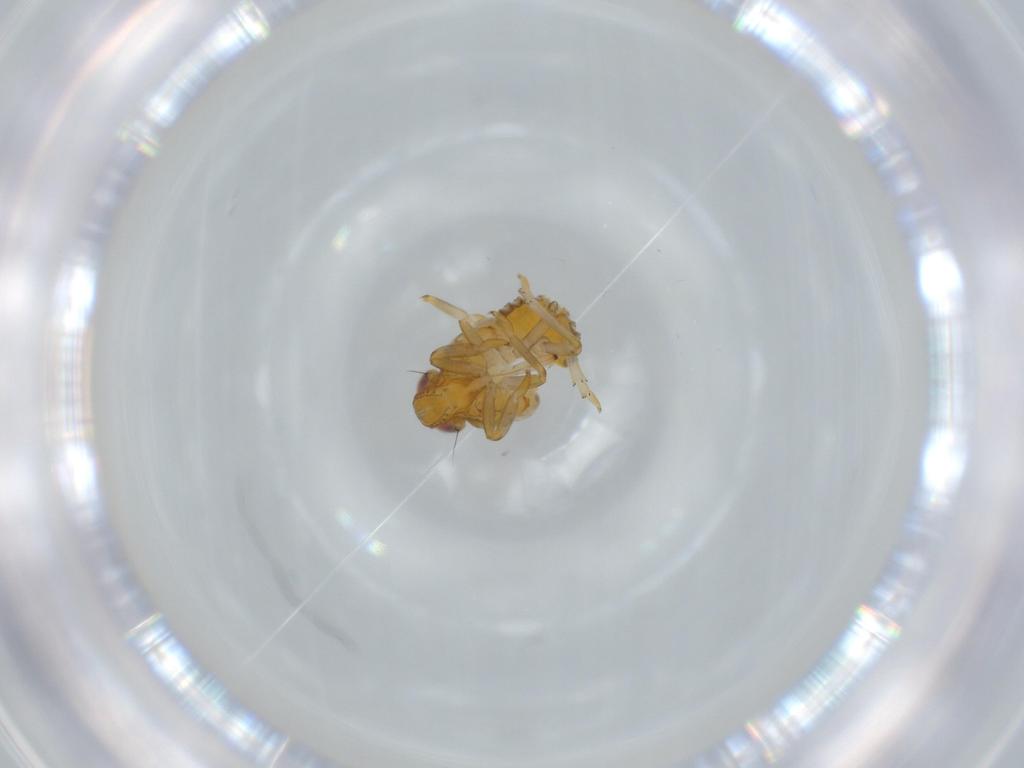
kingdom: Animalia
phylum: Arthropoda
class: Insecta
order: Hemiptera
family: Issidae
